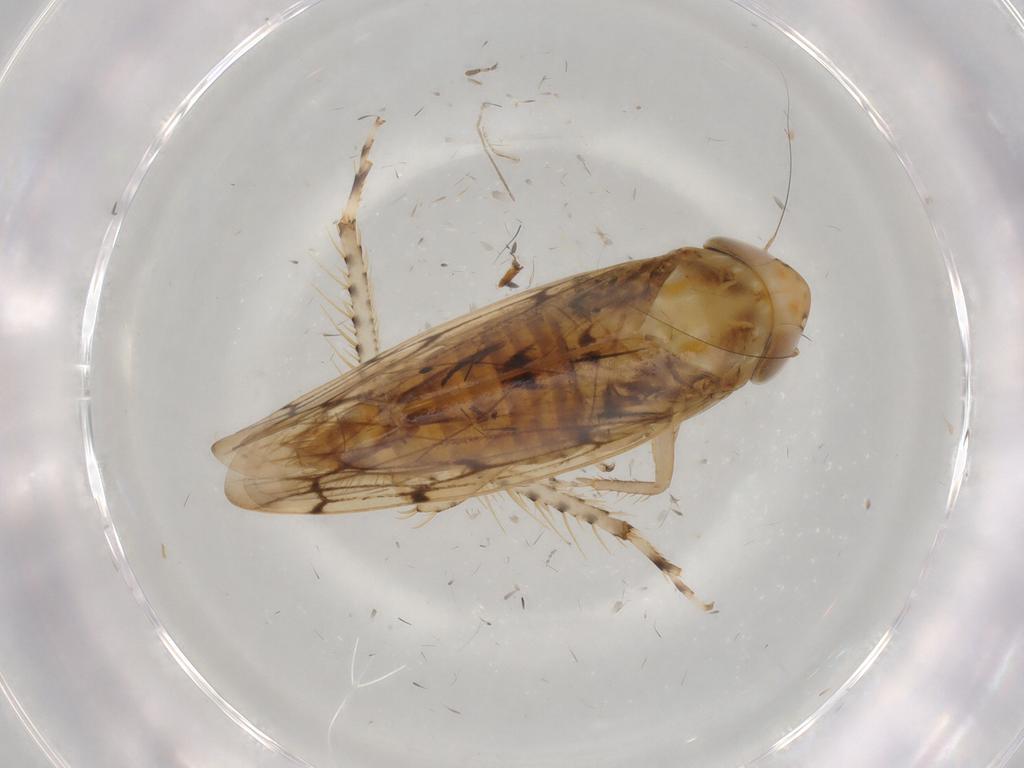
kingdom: Animalia
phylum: Arthropoda
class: Insecta
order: Hemiptera
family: Cicadellidae
